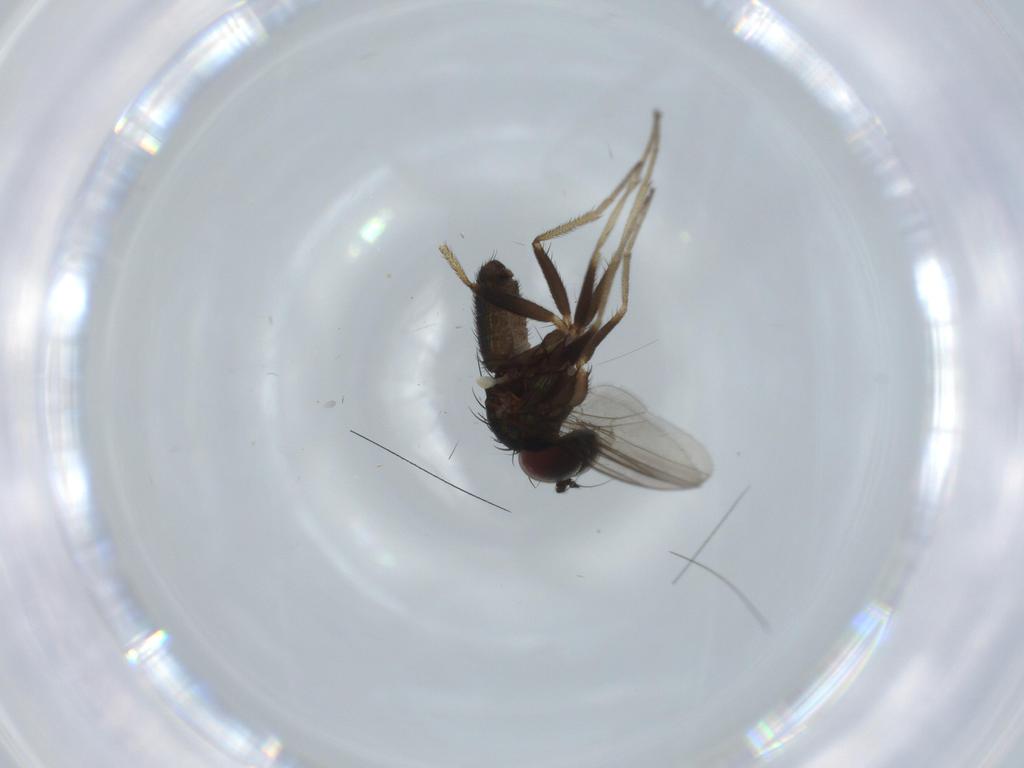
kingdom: Animalia
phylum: Arthropoda
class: Insecta
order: Diptera
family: Dolichopodidae
